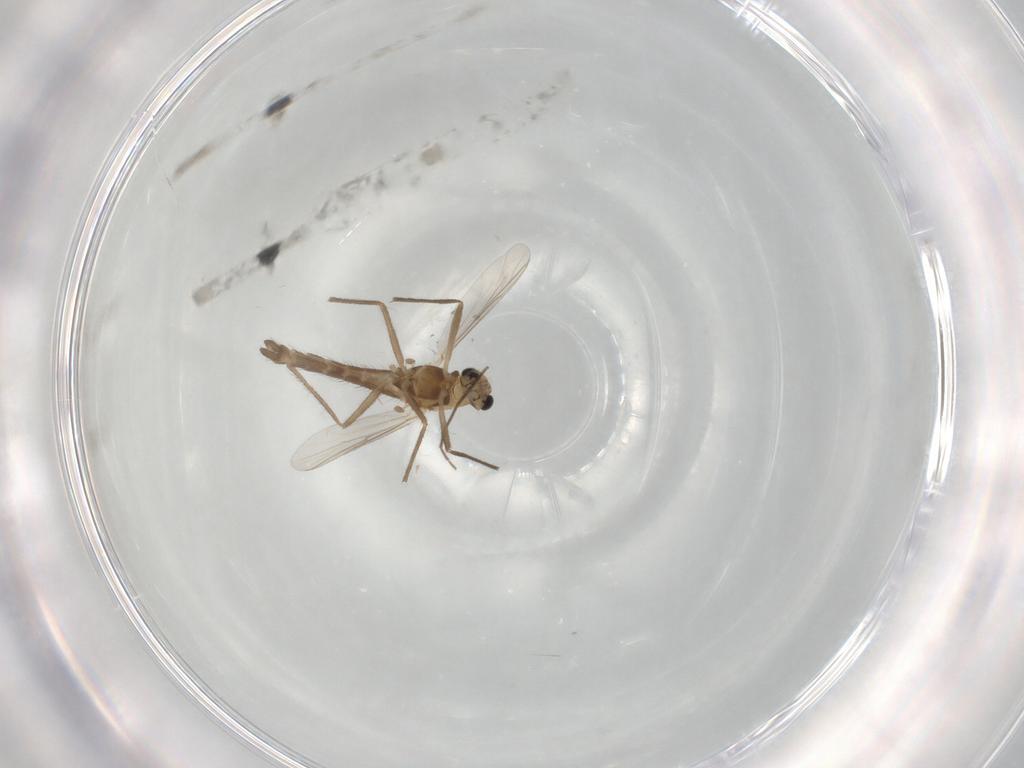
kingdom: Animalia
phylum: Arthropoda
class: Insecta
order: Diptera
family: Chironomidae
